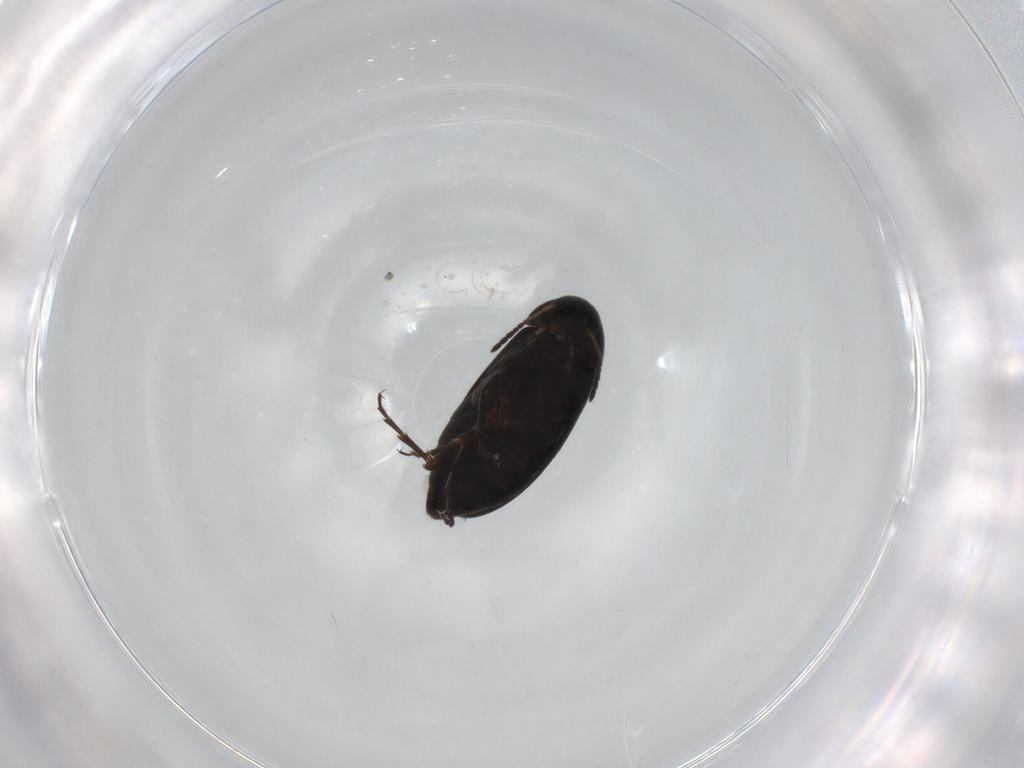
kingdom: Animalia
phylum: Arthropoda
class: Insecta
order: Coleoptera
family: Scraptiidae
